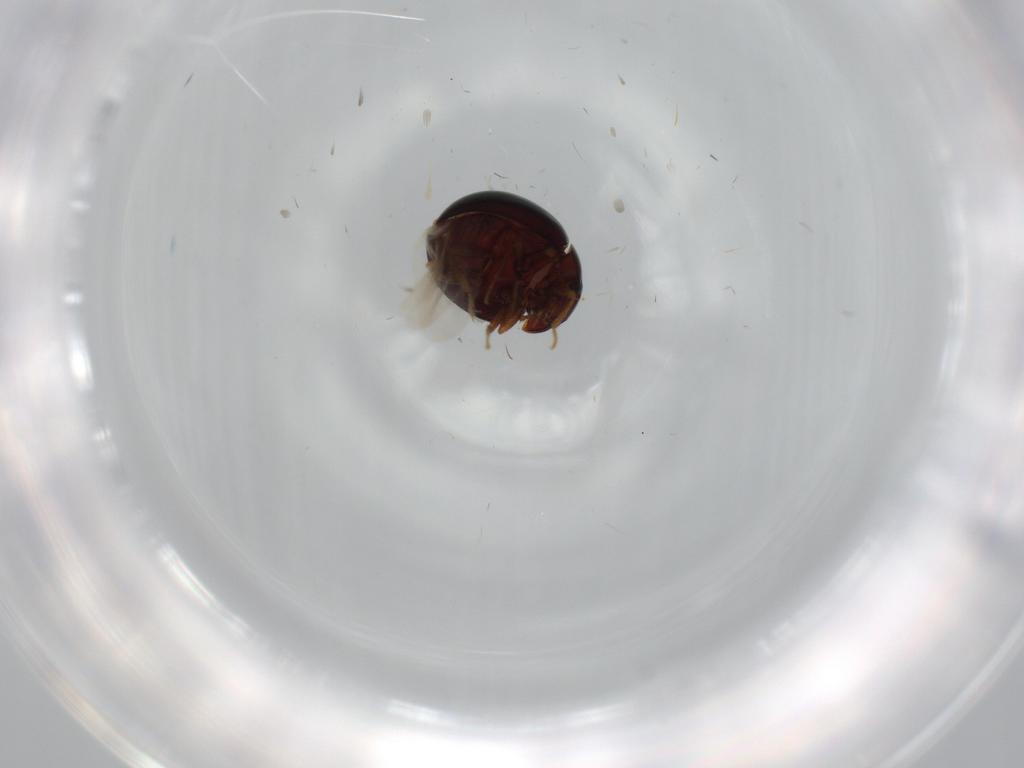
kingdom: Animalia
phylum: Arthropoda
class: Insecta
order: Coleoptera
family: Anamorphidae
